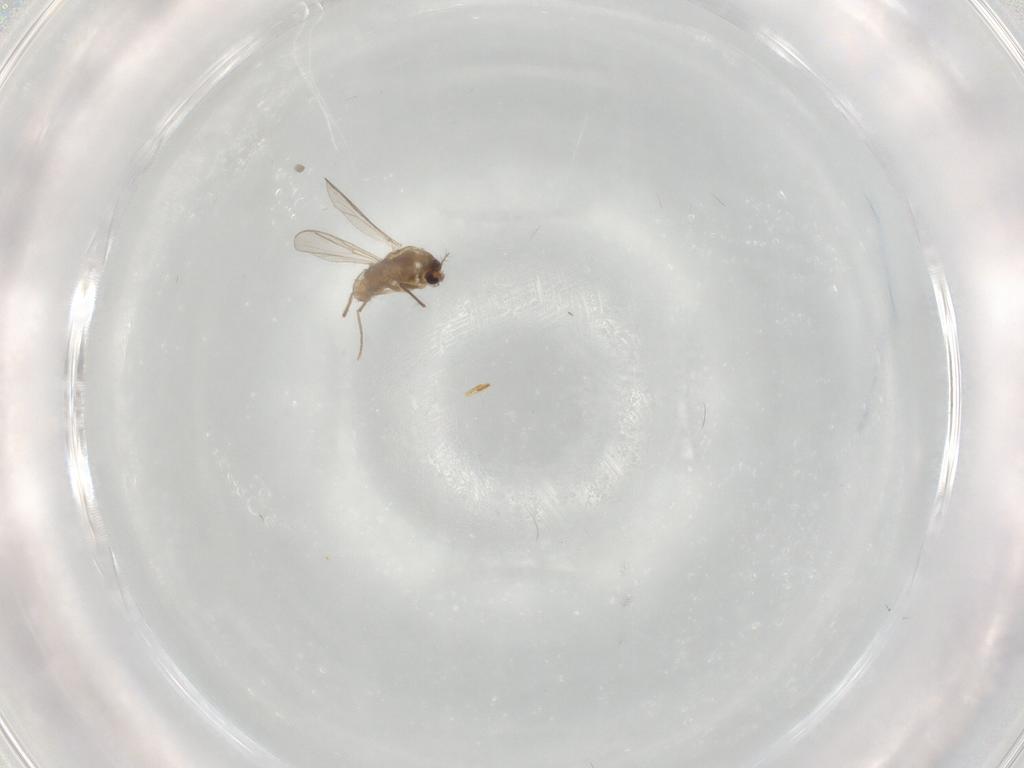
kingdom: Animalia
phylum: Arthropoda
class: Insecta
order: Diptera
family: Chironomidae
